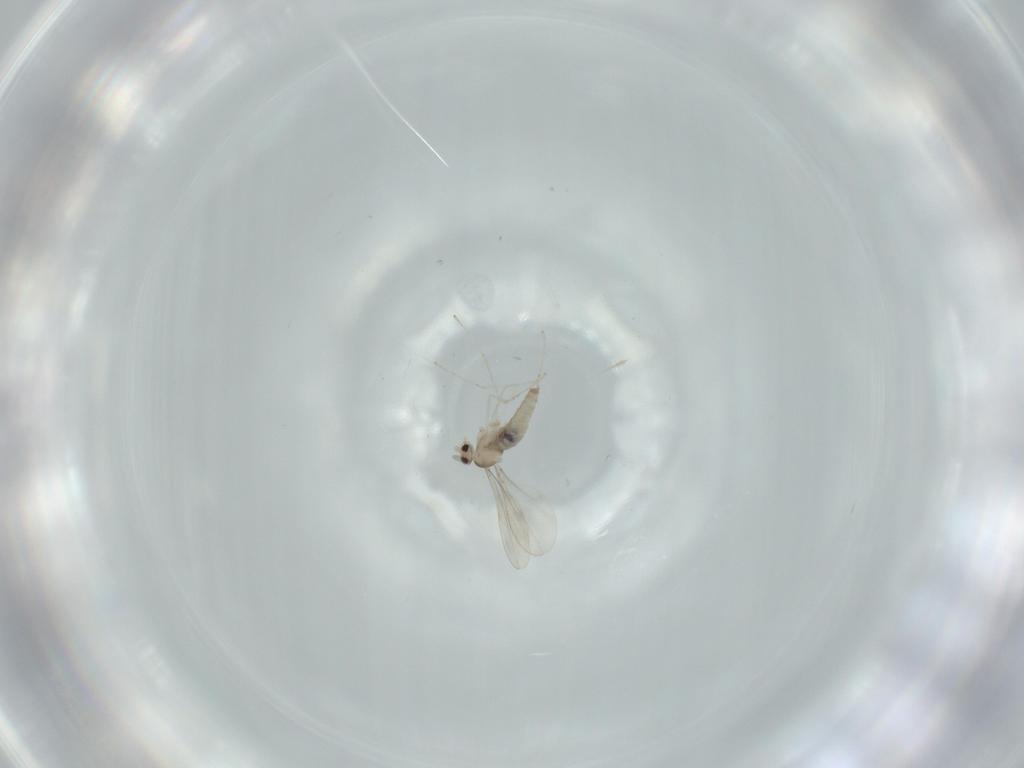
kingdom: Animalia
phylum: Arthropoda
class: Insecta
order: Diptera
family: Cecidomyiidae
